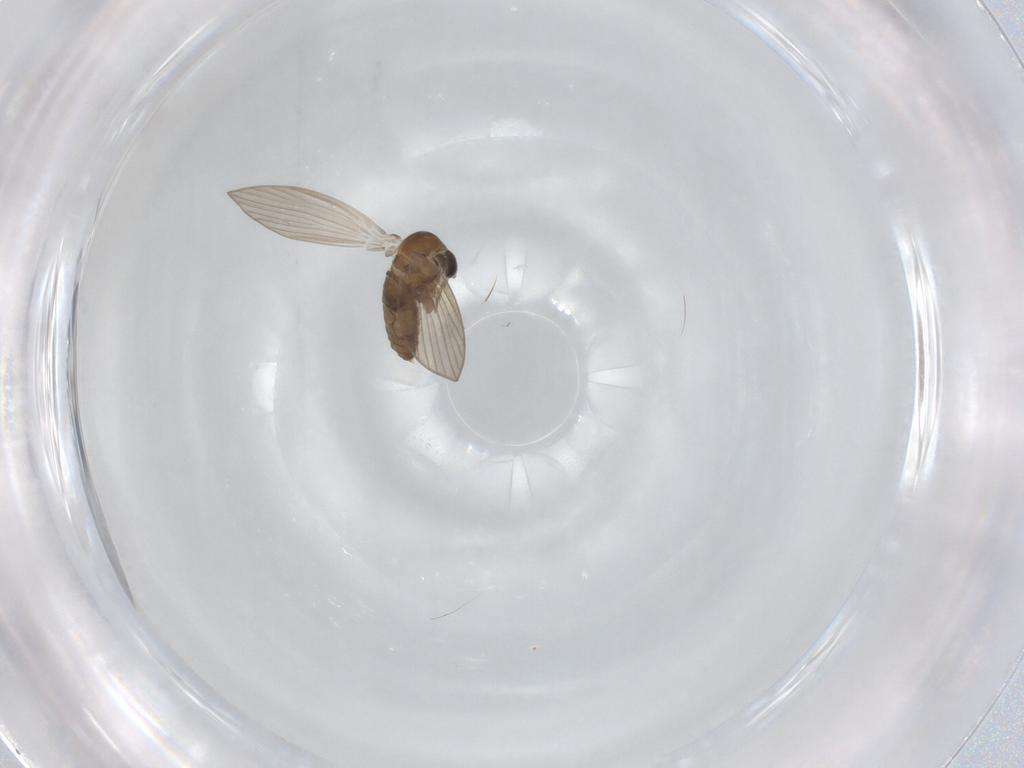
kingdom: Animalia
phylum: Arthropoda
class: Insecta
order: Diptera
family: Psychodidae
